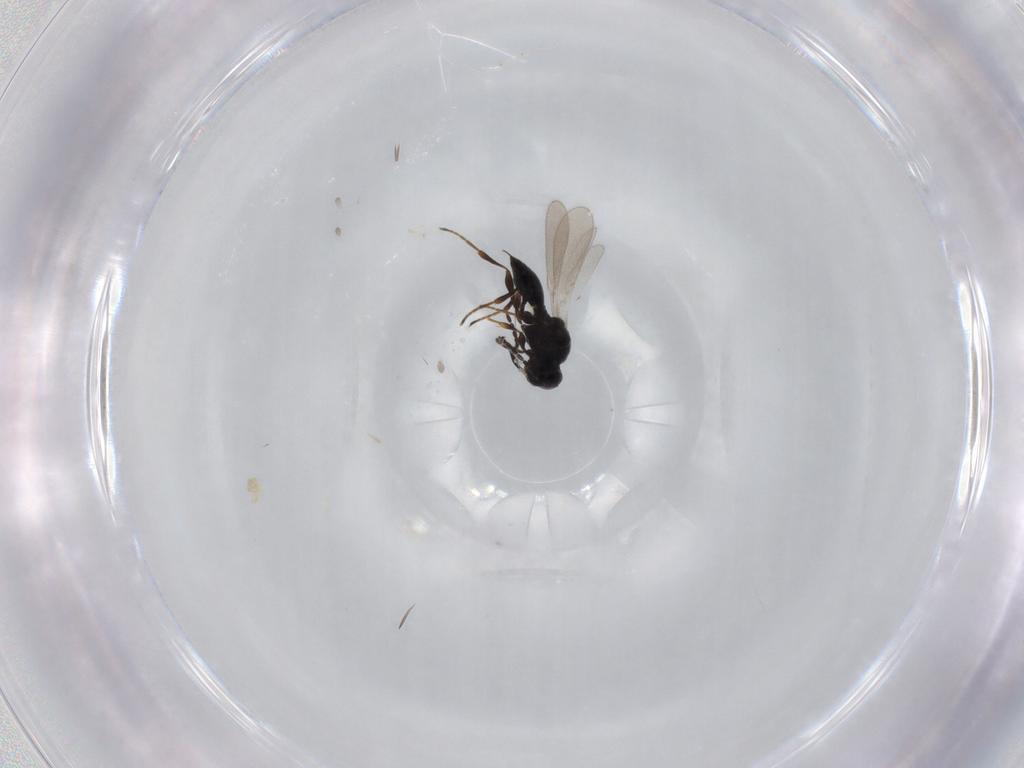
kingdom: Animalia
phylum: Arthropoda
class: Insecta
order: Hymenoptera
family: Platygastridae
